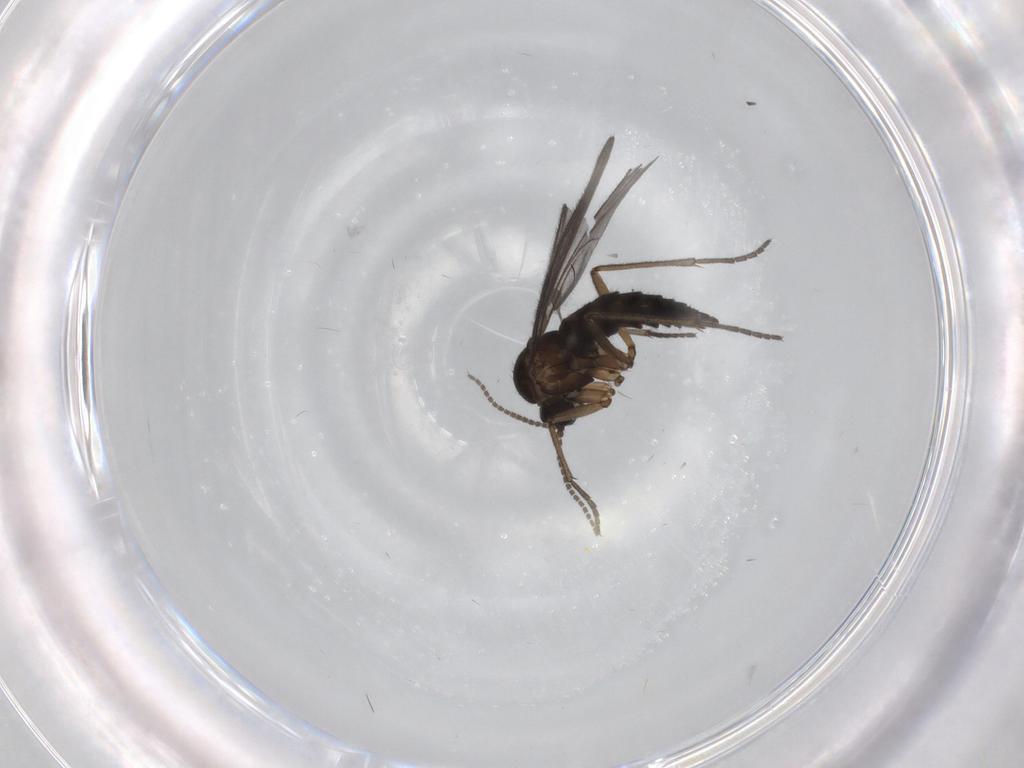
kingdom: Animalia
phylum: Arthropoda
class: Insecta
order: Diptera
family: Sciaridae
